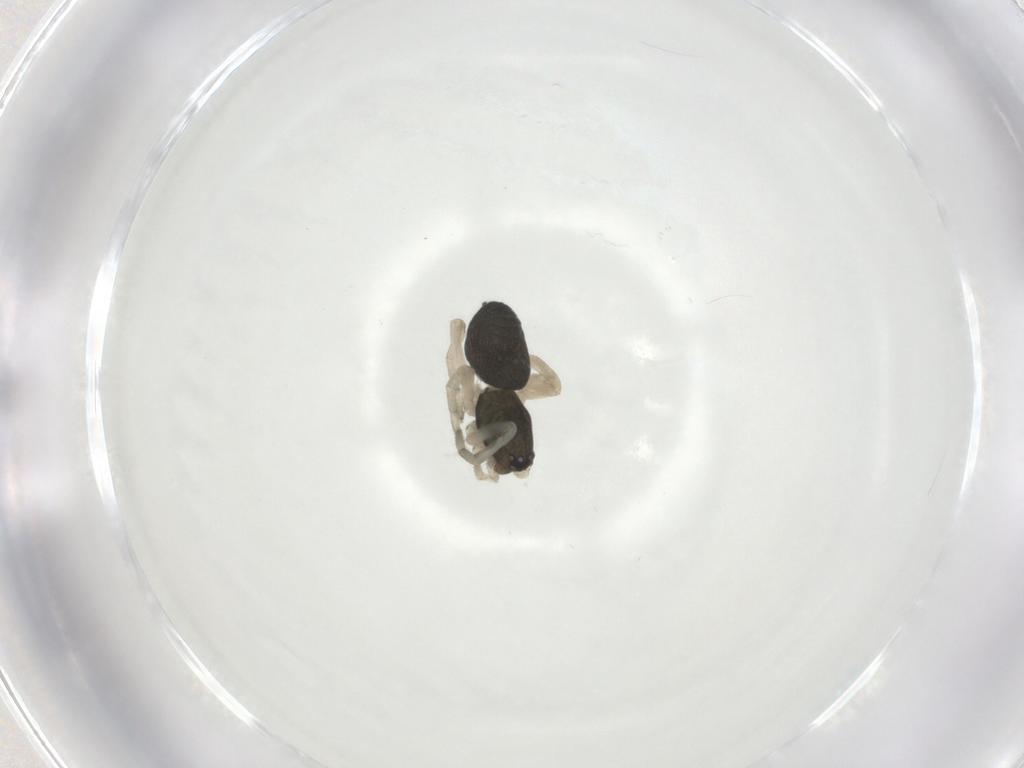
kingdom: Animalia
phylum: Arthropoda
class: Arachnida
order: Araneae
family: Trachelidae
